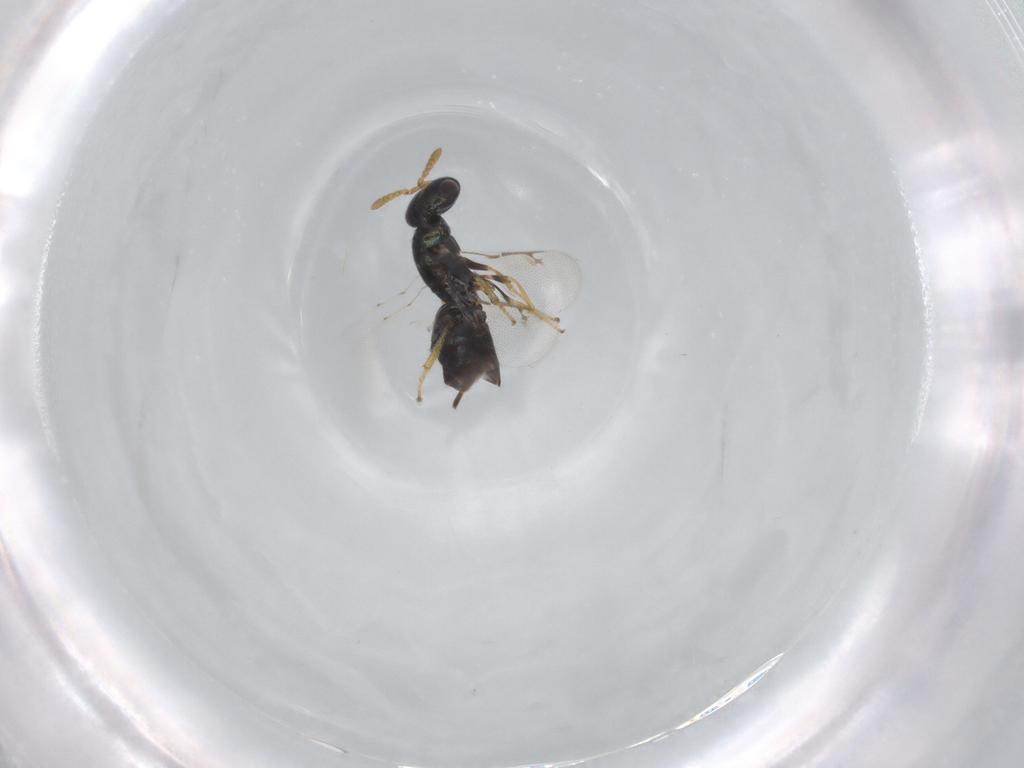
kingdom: Animalia
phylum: Arthropoda
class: Insecta
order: Hymenoptera
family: Pirenidae
